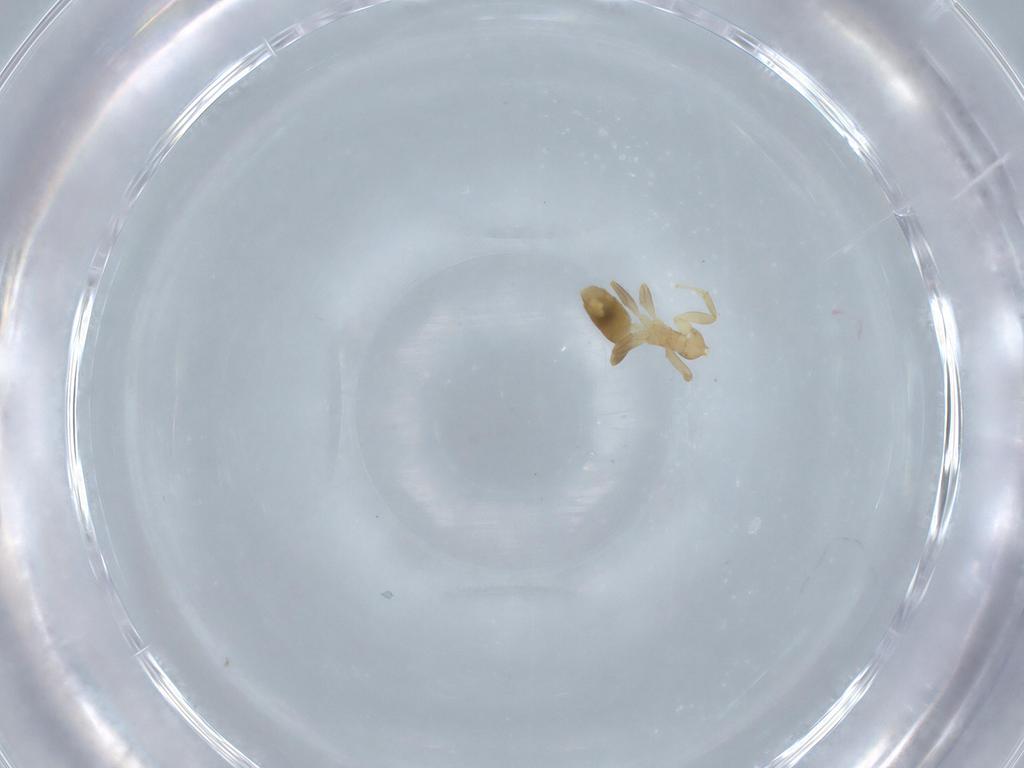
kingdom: Animalia
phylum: Arthropoda
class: Insecta
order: Hymenoptera
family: Formicidae
